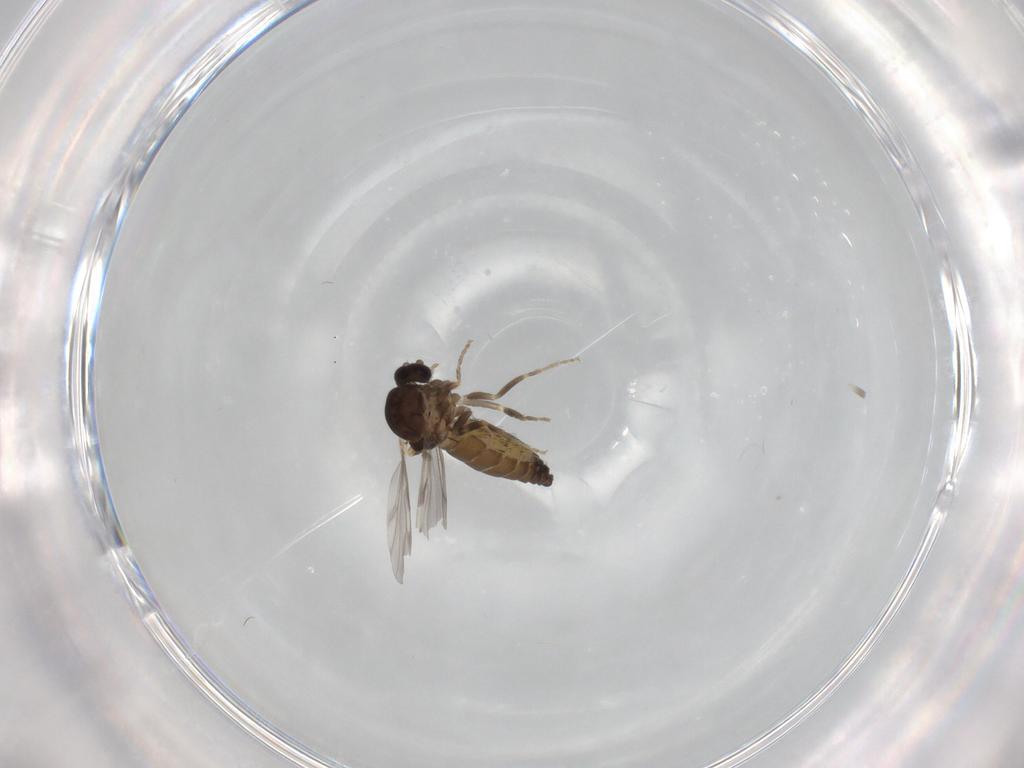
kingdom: Animalia
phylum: Arthropoda
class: Insecta
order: Diptera
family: Ceratopogonidae
